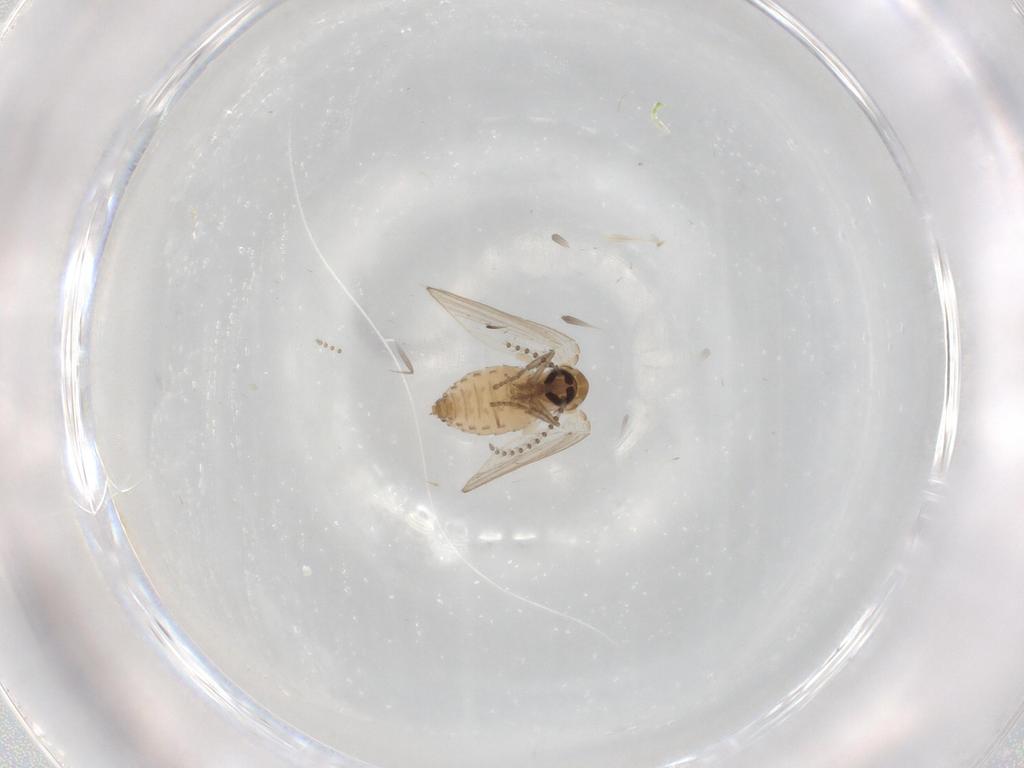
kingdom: Animalia
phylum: Arthropoda
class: Insecta
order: Diptera
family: Psychodidae
